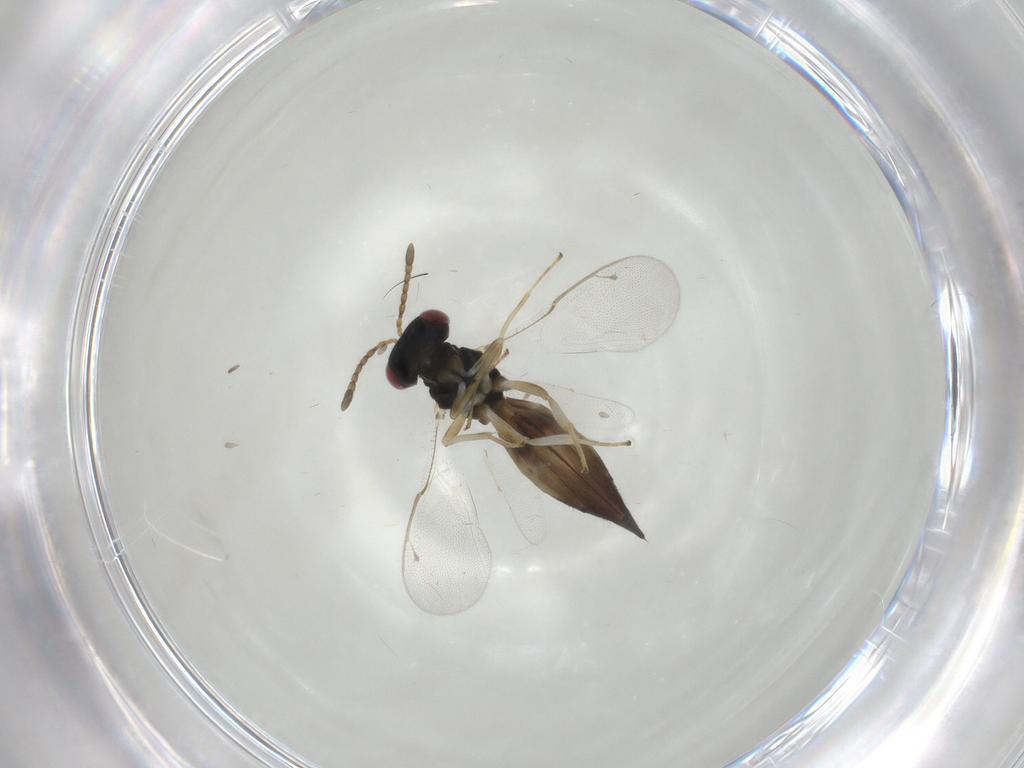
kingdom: Animalia
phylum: Arthropoda
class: Insecta
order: Hymenoptera
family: Pteromalidae
